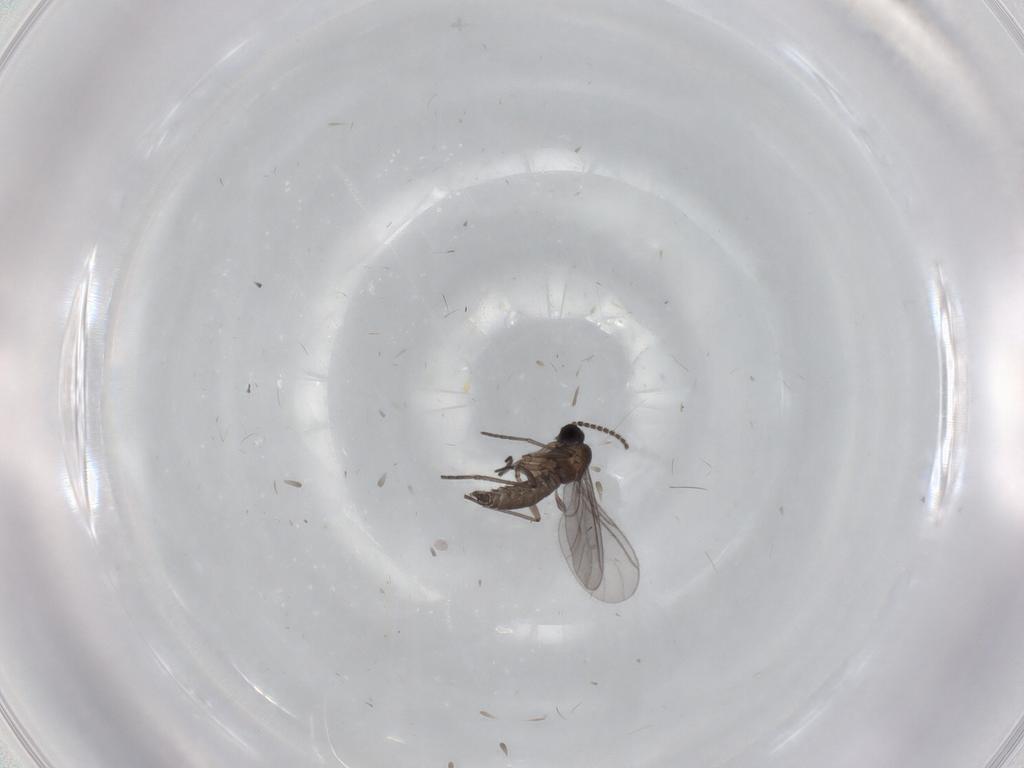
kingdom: Animalia
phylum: Arthropoda
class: Insecta
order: Diptera
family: Cecidomyiidae
